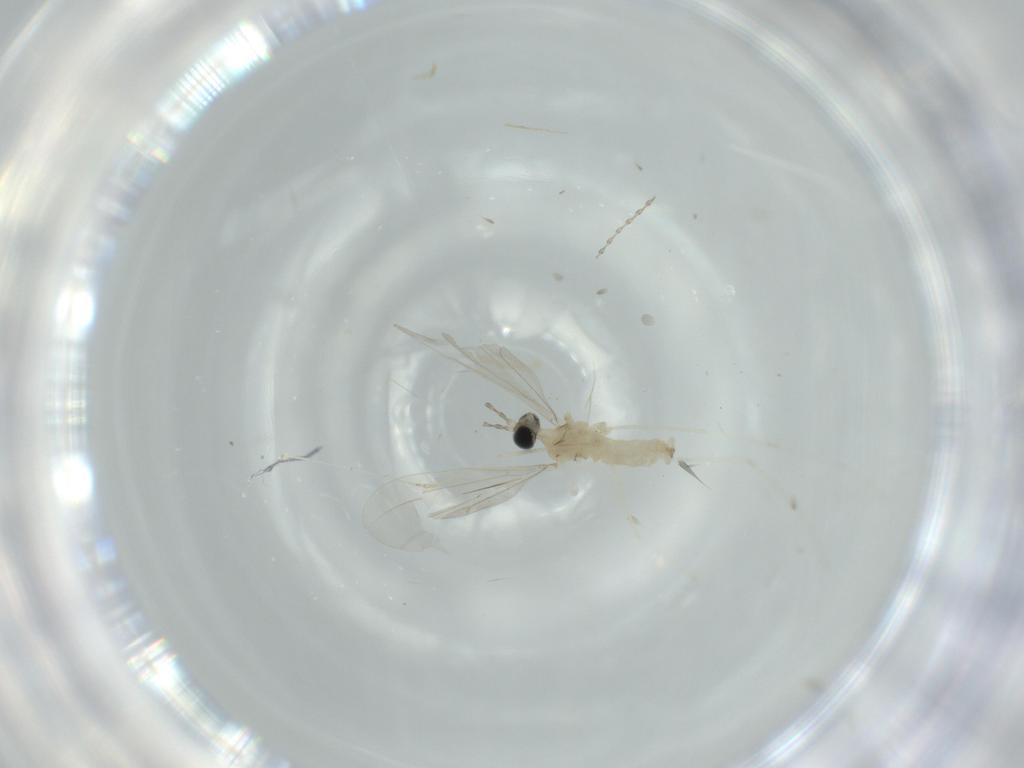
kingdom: Animalia
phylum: Arthropoda
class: Insecta
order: Diptera
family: Cecidomyiidae
